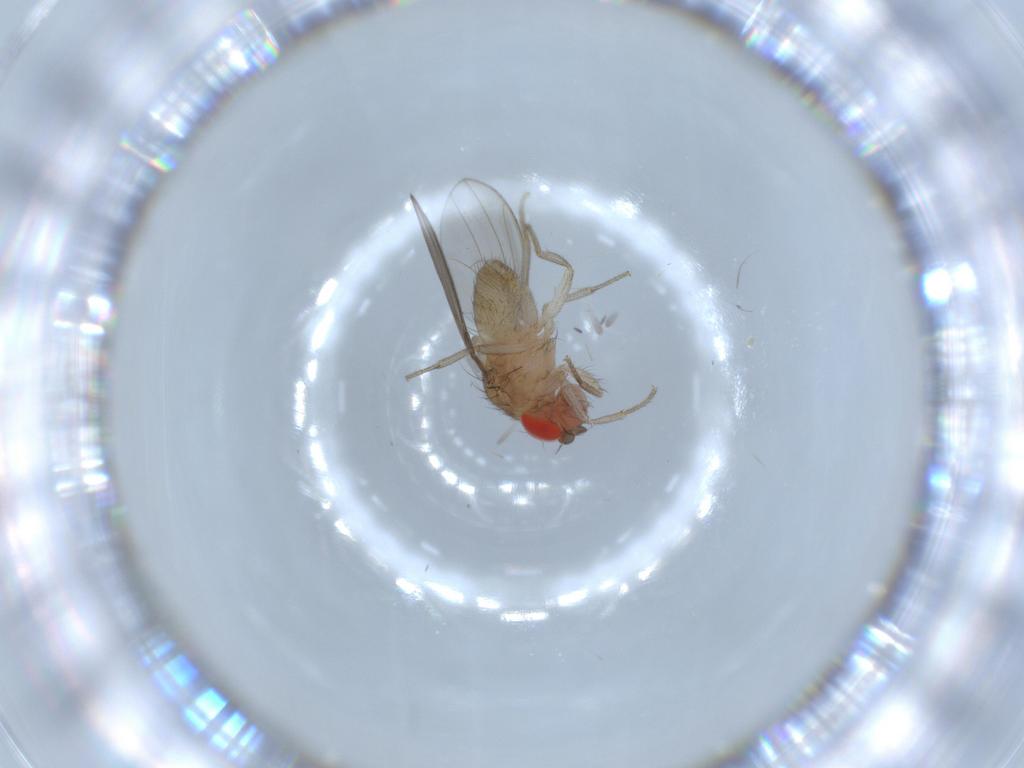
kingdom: Animalia
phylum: Arthropoda
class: Insecta
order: Diptera
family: Drosophilidae
